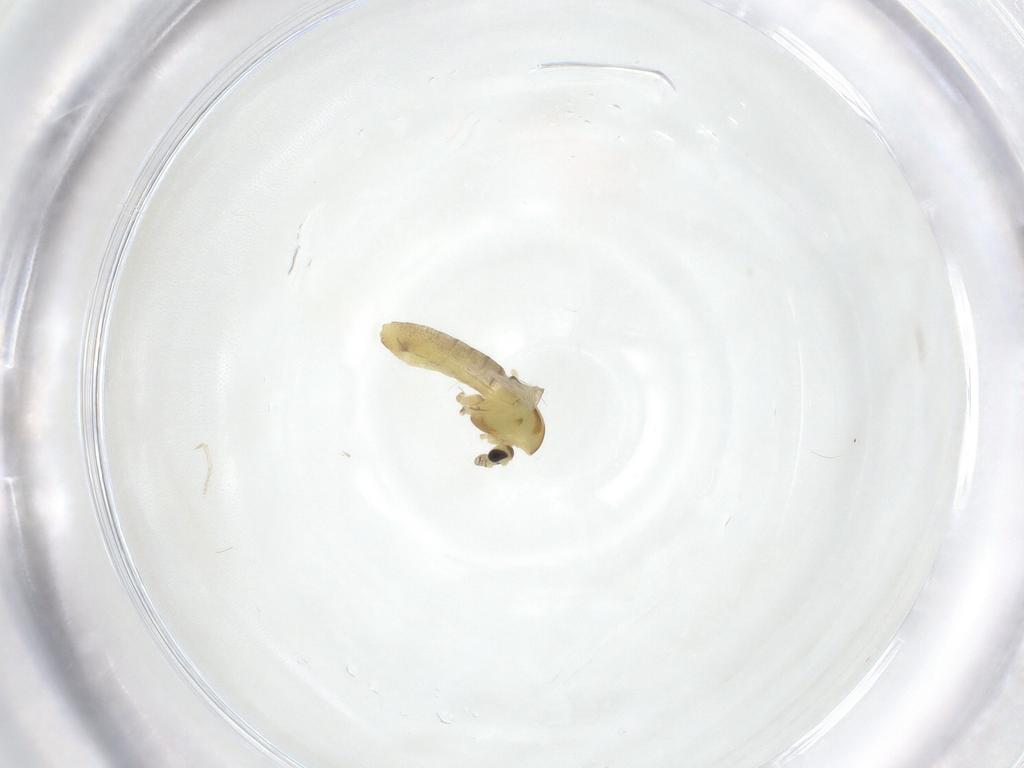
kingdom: Animalia
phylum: Arthropoda
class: Insecta
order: Diptera
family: Chironomidae
